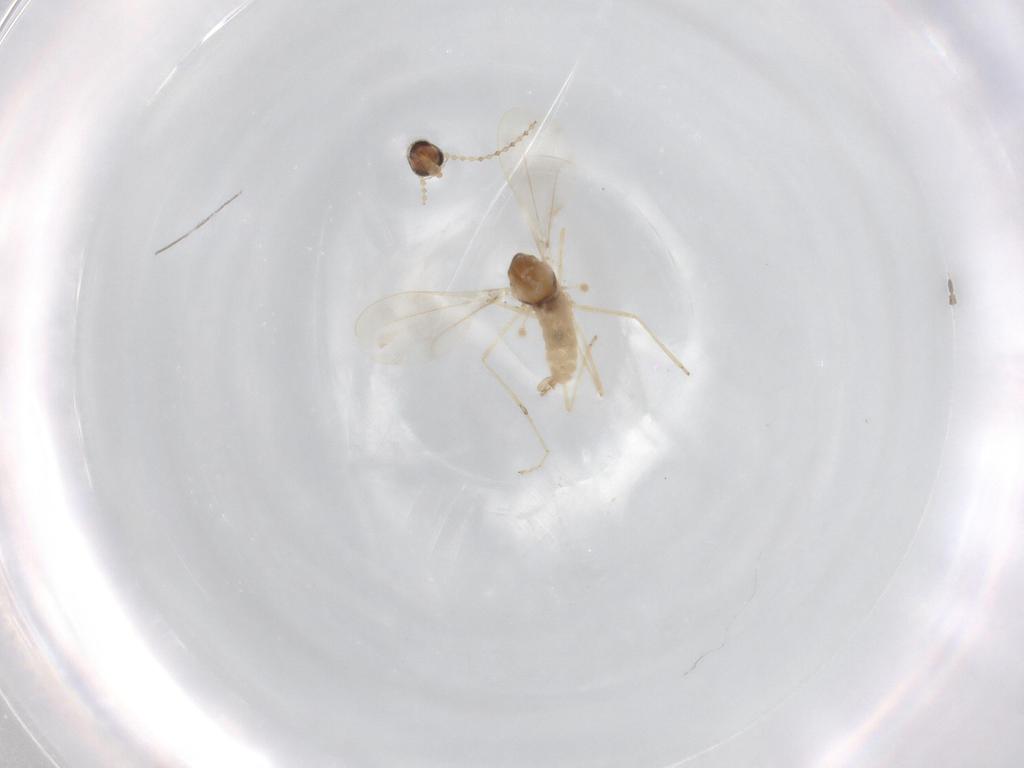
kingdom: Animalia
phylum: Arthropoda
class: Insecta
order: Diptera
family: Cecidomyiidae
